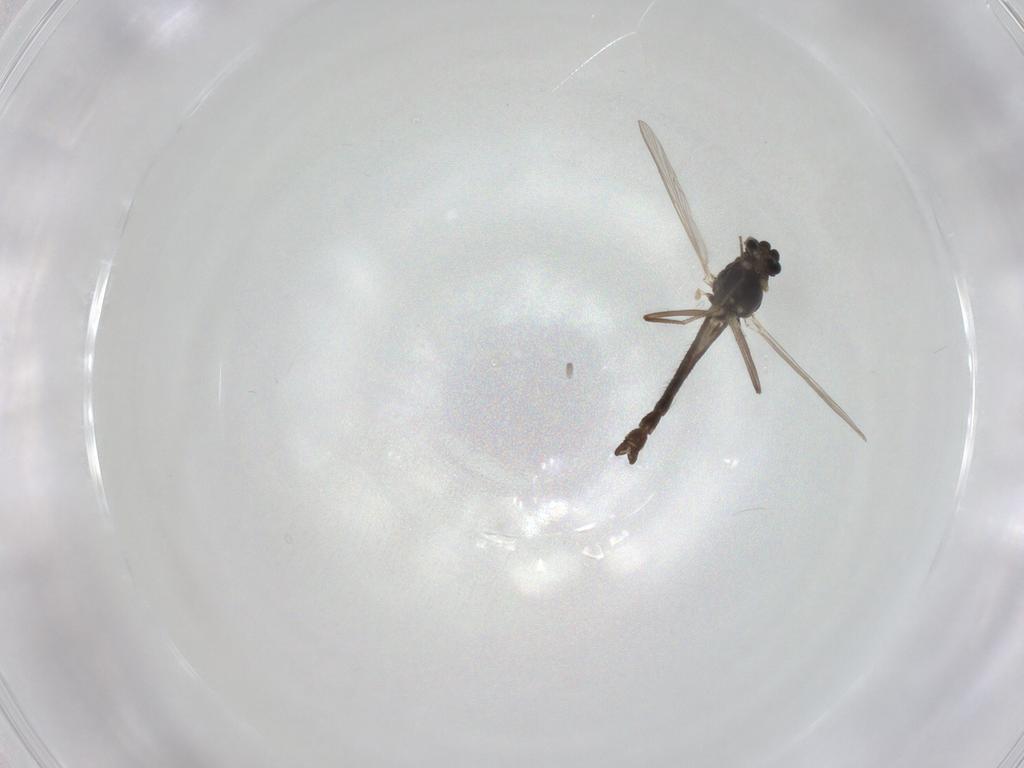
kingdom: Animalia
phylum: Arthropoda
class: Insecta
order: Diptera
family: Chironomidae
